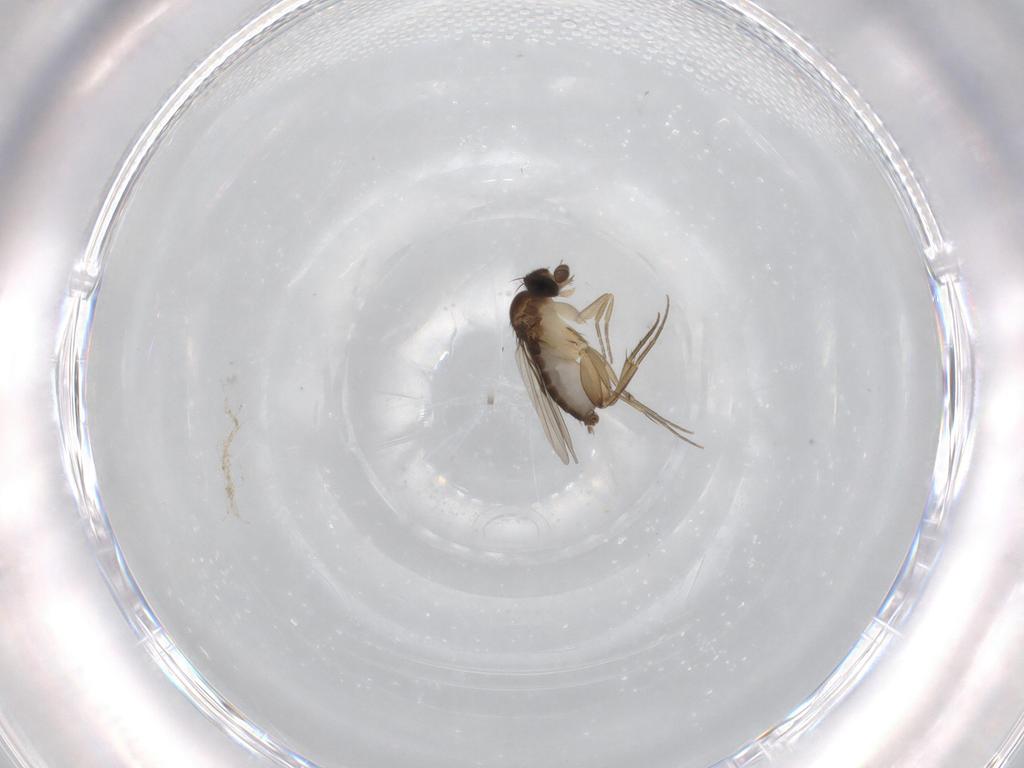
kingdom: Animalia
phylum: Arthropoda
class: Insecta
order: Diptera
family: Phoridae
